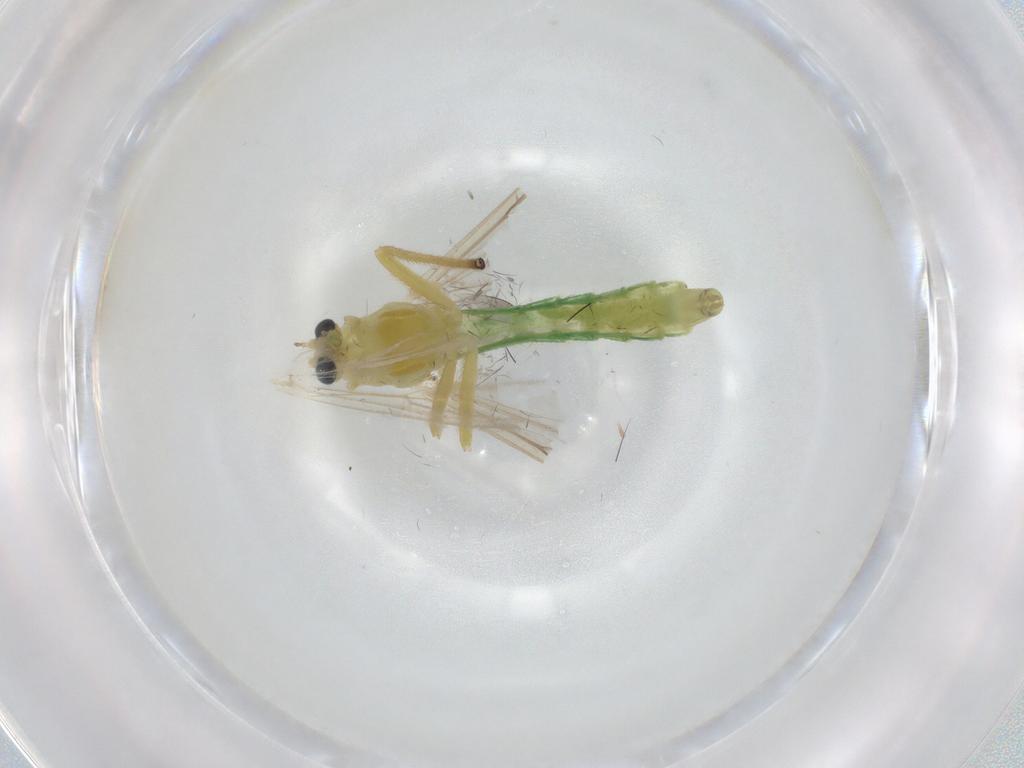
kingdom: Animalia
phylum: Arthropoda
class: Insecta
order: Diptera
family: Chironomidae
